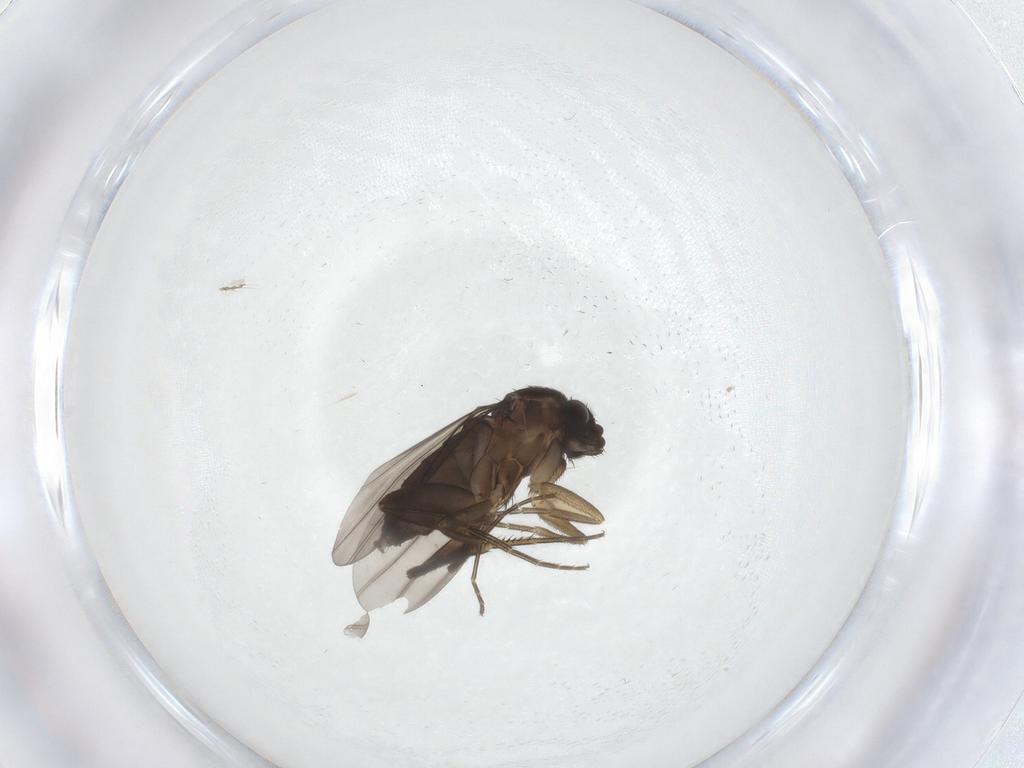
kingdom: Animalia
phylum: Arthropoda
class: Insecta
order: Diptera
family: Phoridae
